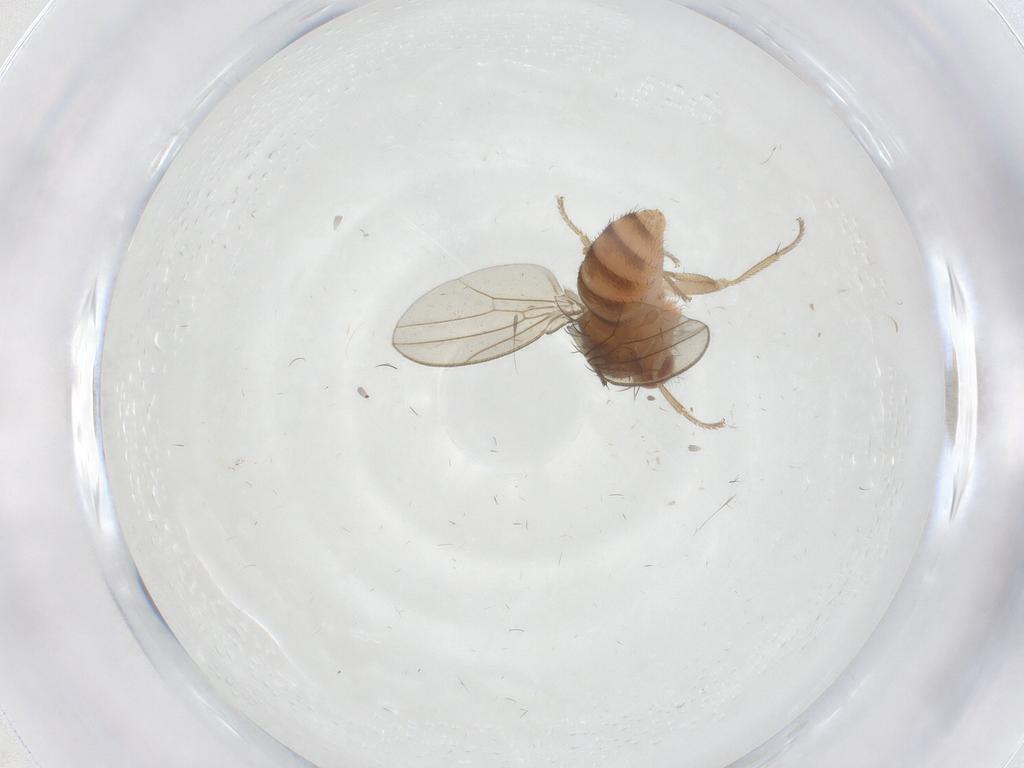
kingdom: Animalia
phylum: Arthropoda
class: Insecta
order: Diptera
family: Drosophilidae
